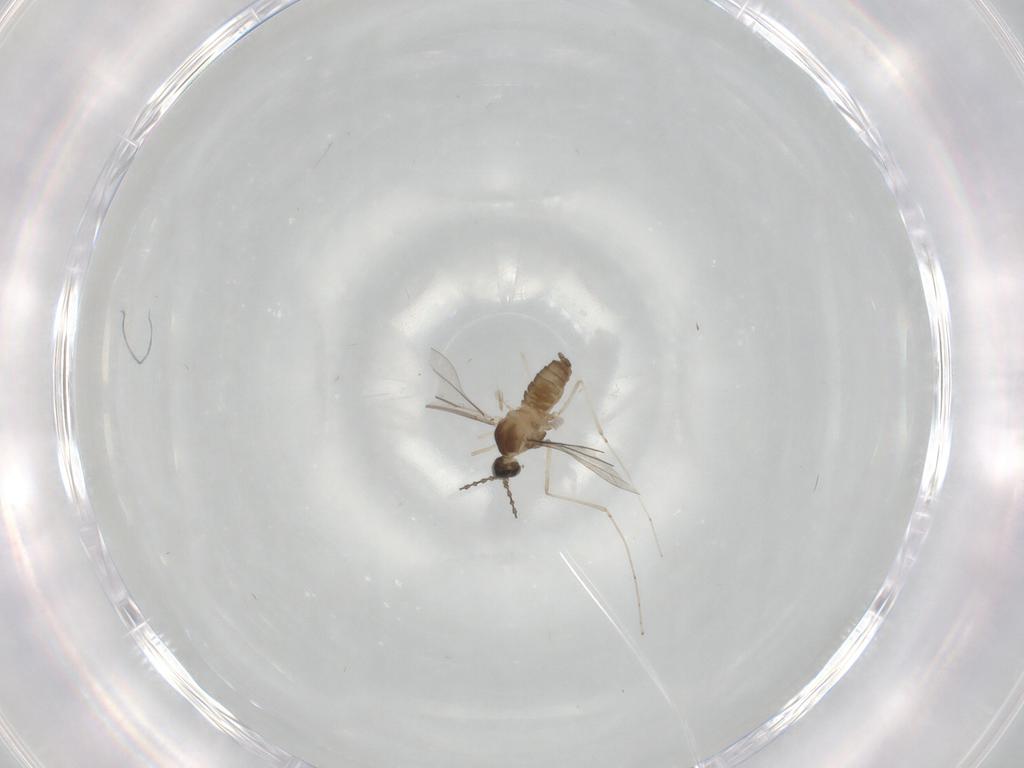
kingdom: Animalia
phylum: Arthropoda
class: Insecta
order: Diptera
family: Cecidomyiidae
